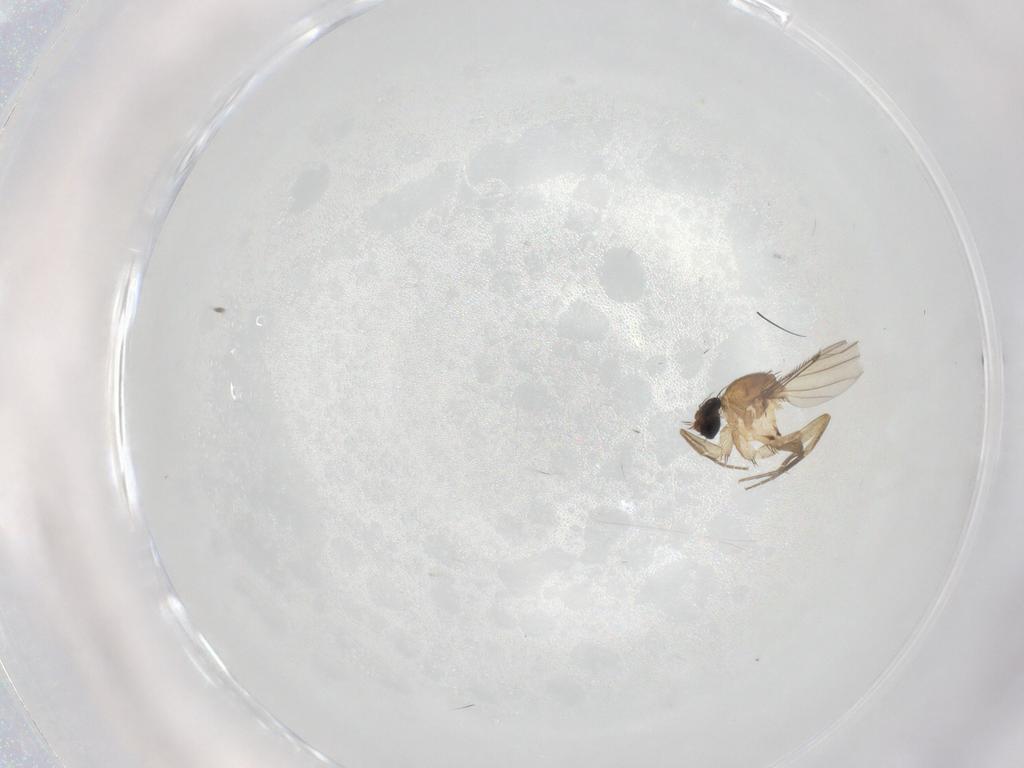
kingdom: Animalia
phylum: Arthropoda
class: Insecta
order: Diptera
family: Phoridae
